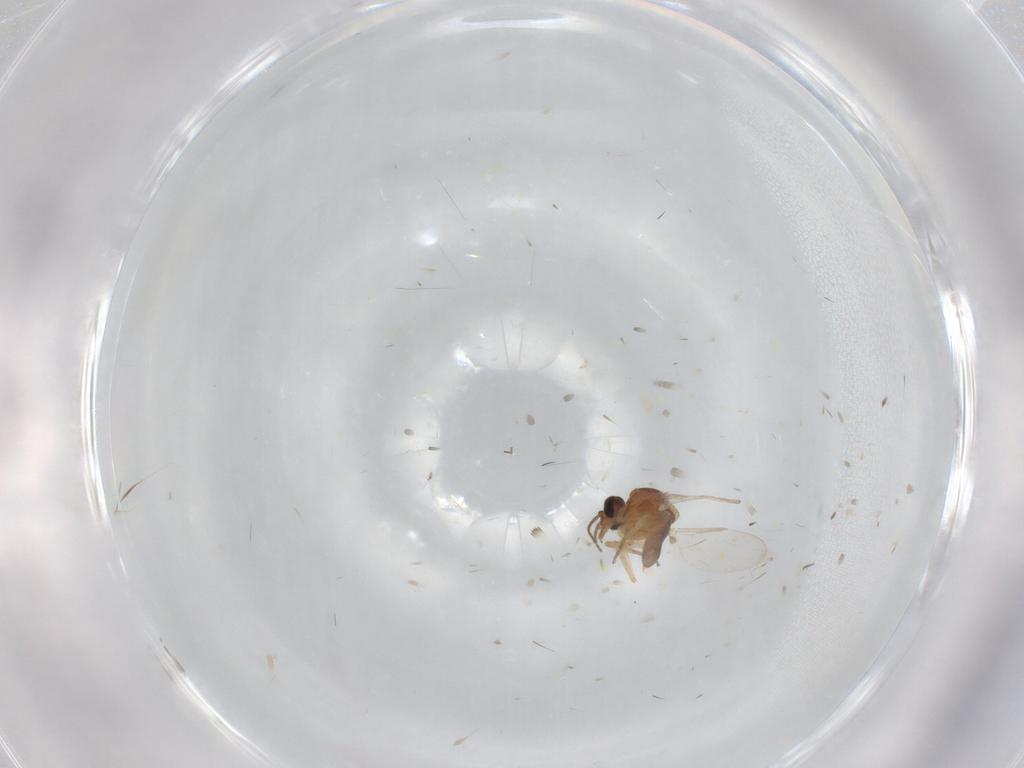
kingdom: Animalia
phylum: Arthropoda
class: Insecta
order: Diptera
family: Ceratopogonidae
